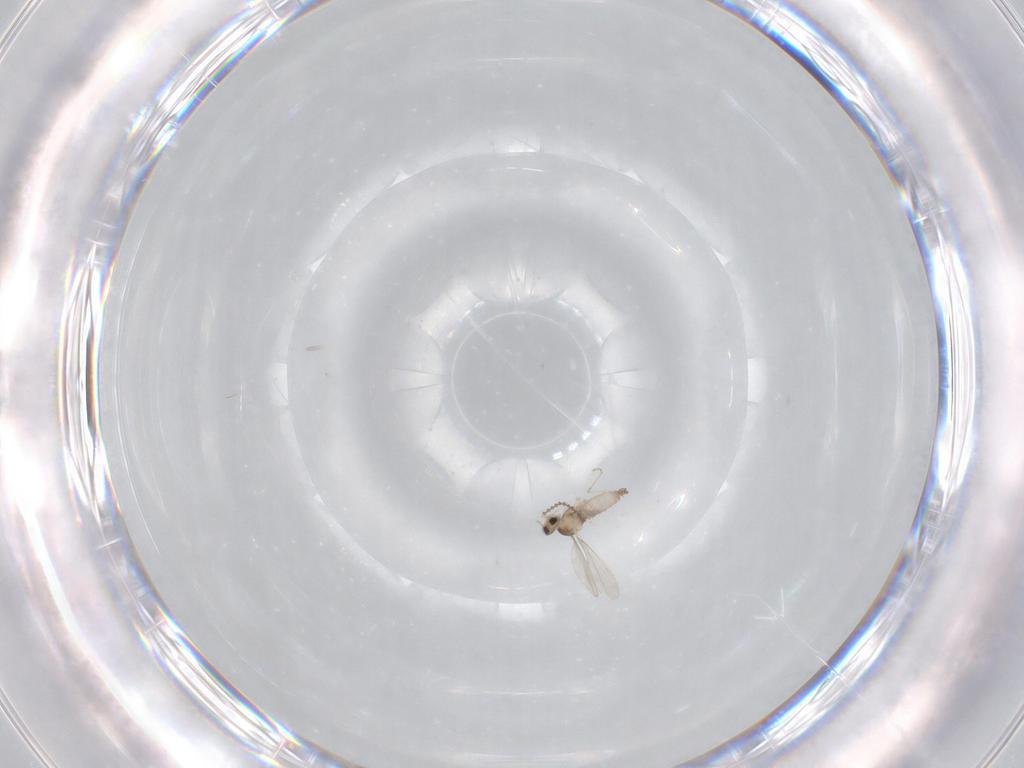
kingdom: Animalia
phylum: Arthropoda
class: Insecta
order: Diptera
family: Cecidomyiidae
